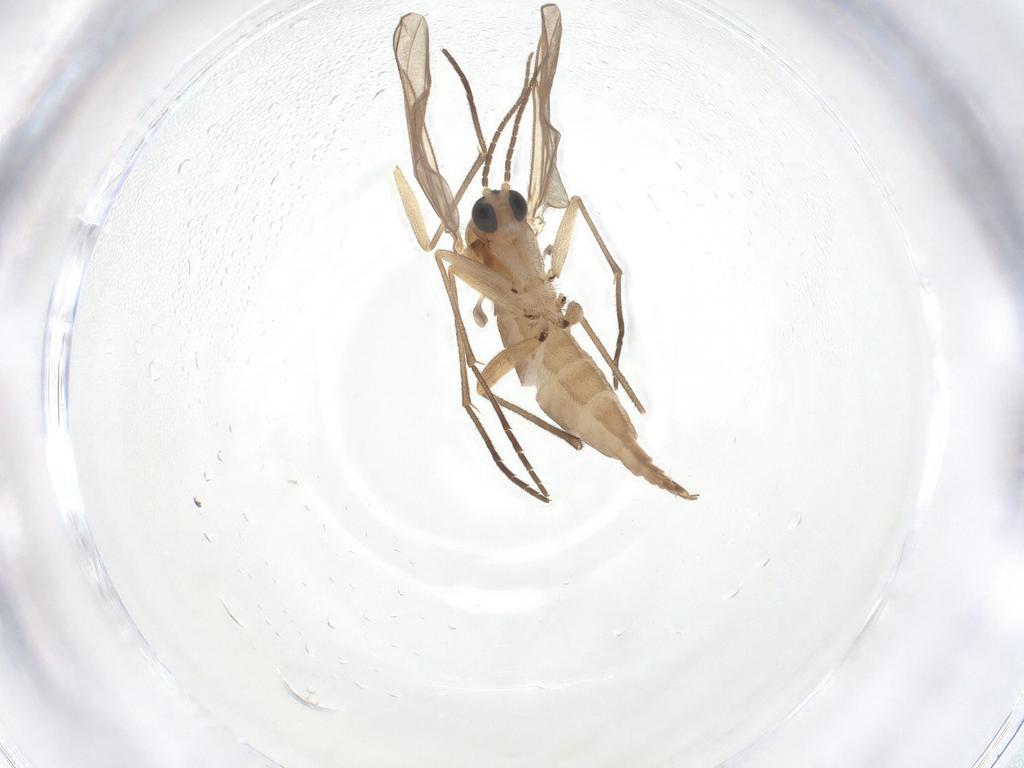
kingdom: Animalia
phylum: Arthropoda
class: Insecta
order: Diptera
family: Sciaridae
